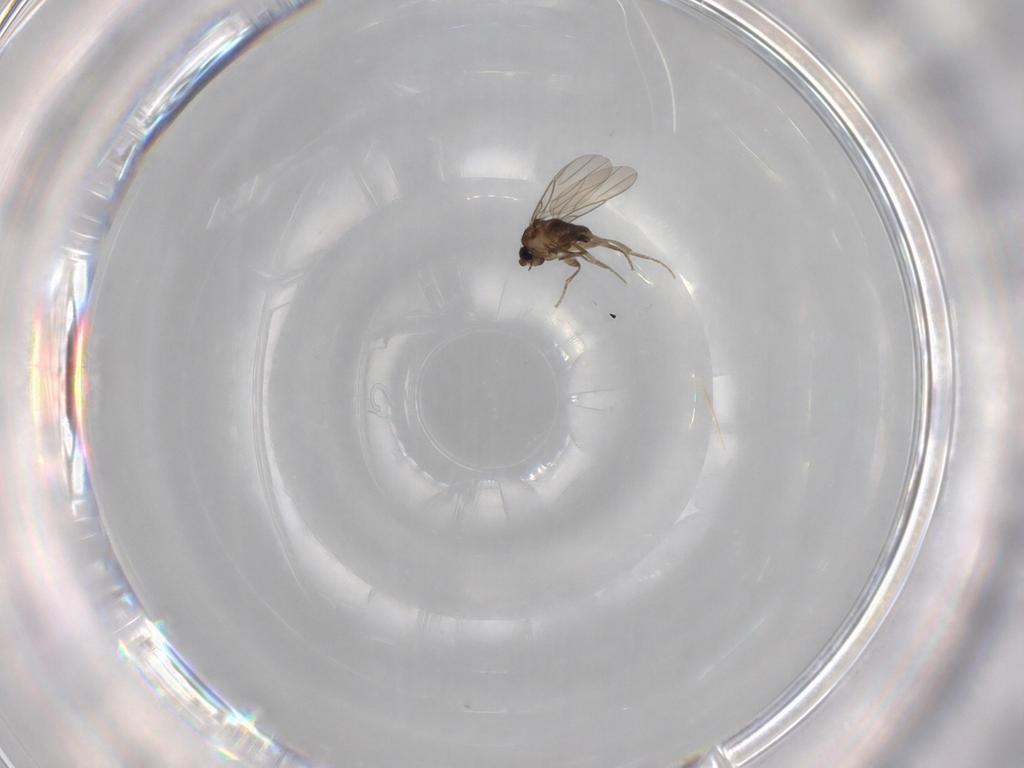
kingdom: Animalia
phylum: Arthropoda
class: Insecta
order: Diptera
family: Phoridae
